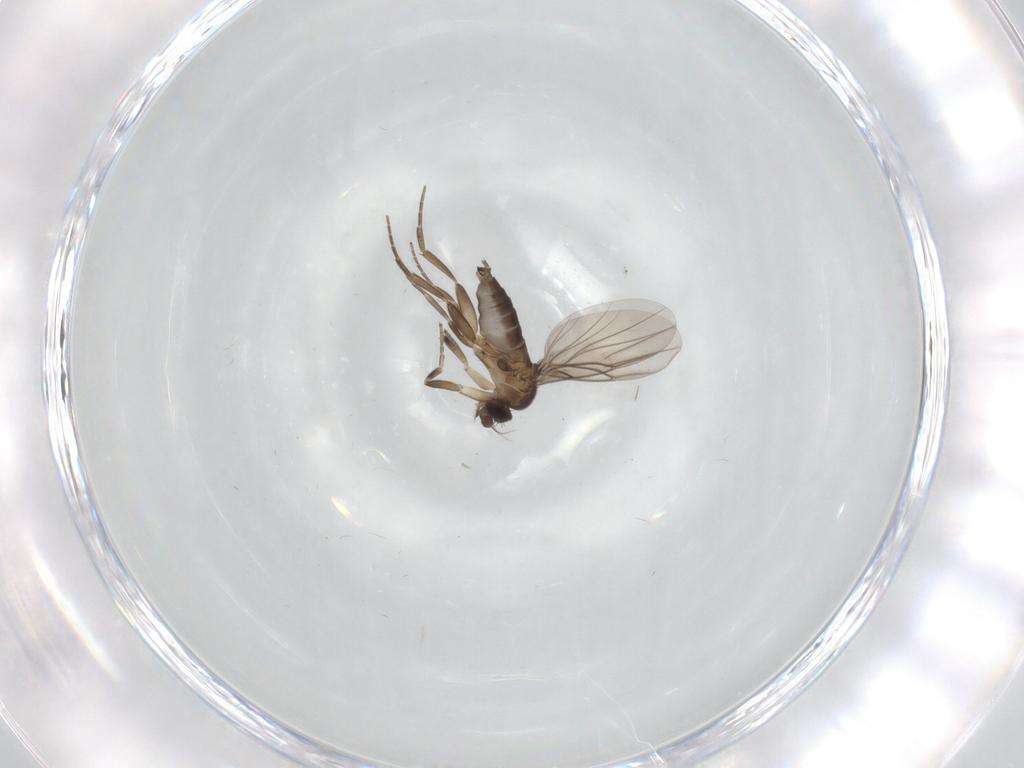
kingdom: Animalia
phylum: Arthropoda
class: Insecta
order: Diptera
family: Phoridae
